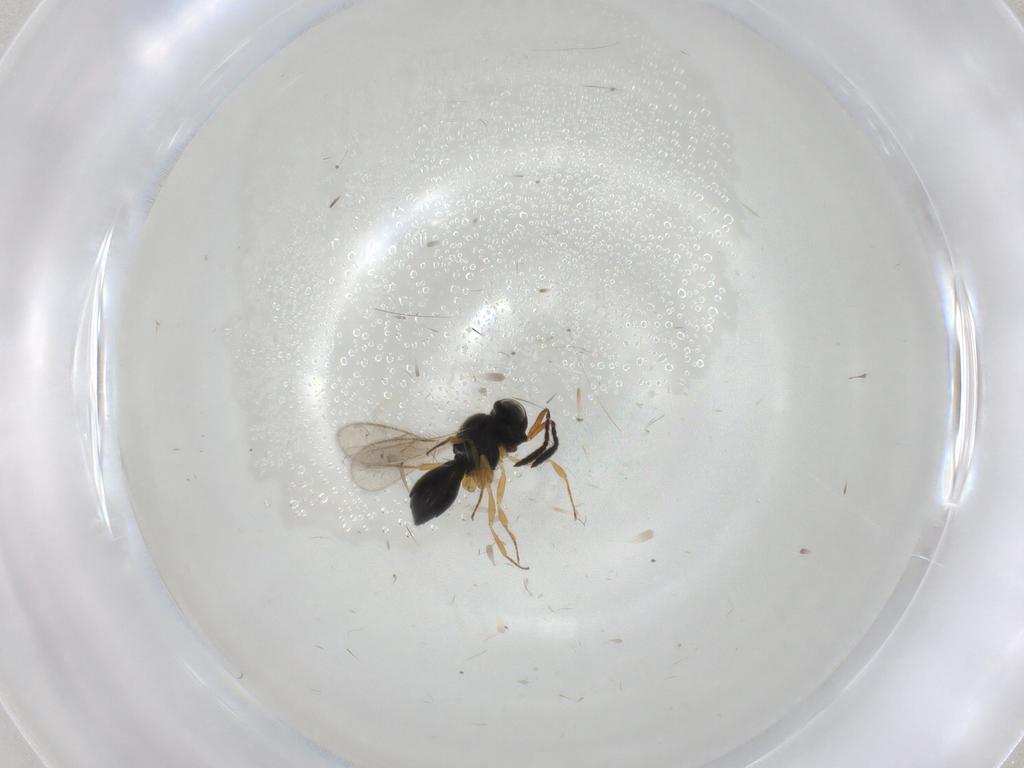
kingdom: Animalia
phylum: Arthropoda
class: Insecta
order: Hymenoptera
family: Scelionidae
